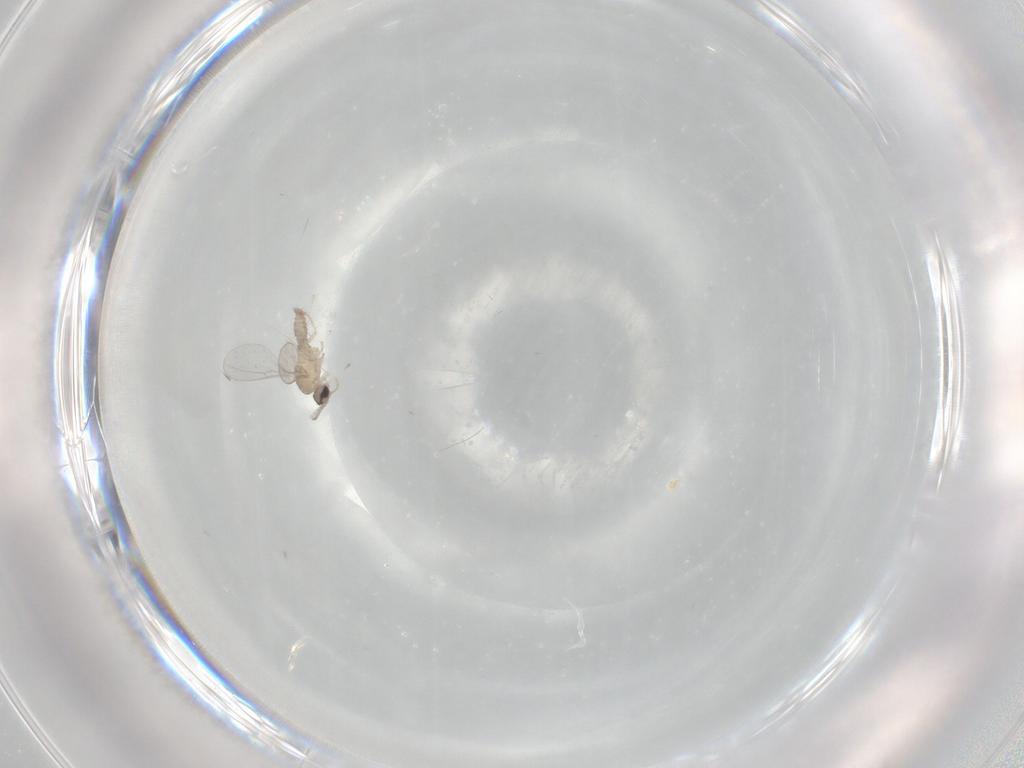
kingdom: Animalia
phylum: Arthropoda
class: Insecta
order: Diptera
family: Cecidomyiidae
